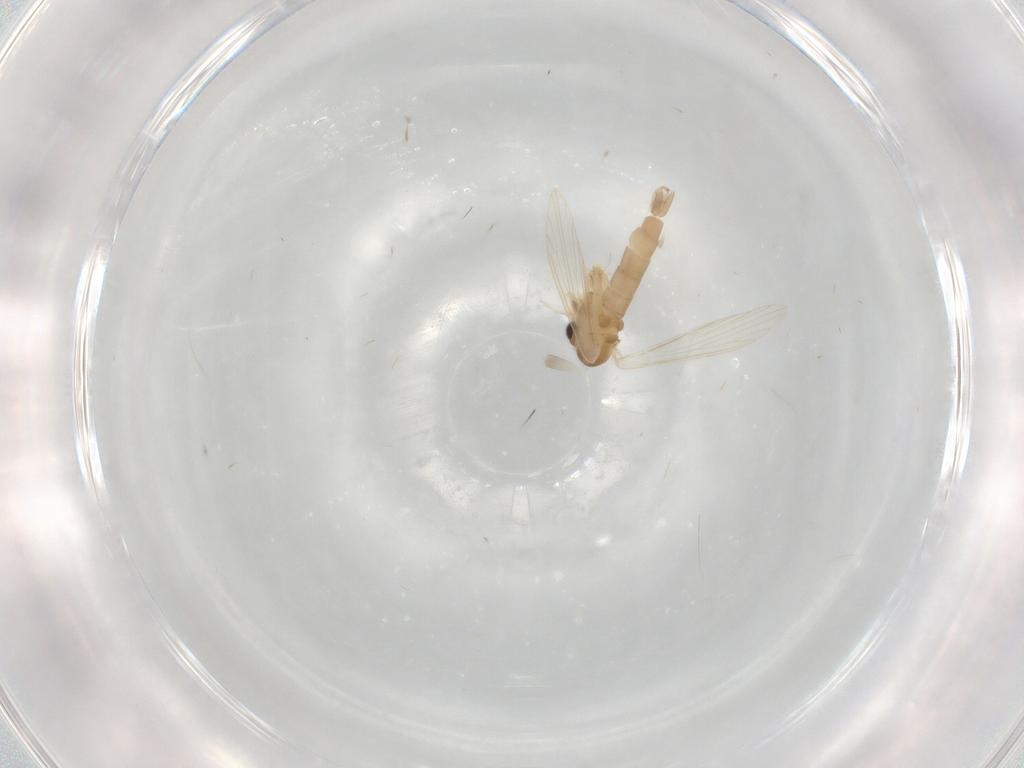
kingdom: Animalia
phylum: Arthropoda
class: Insecta
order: Diptera
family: Psychodidae
